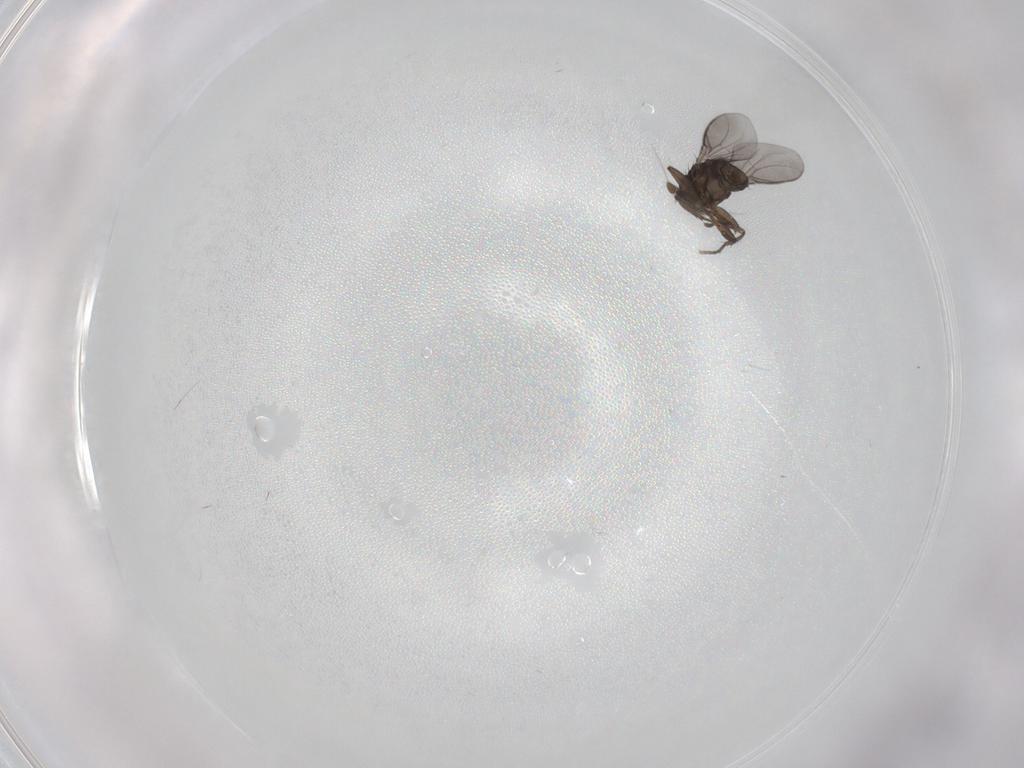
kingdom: Animalia
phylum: Arthropoda
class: Insecta
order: Diptera
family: Sphaeroceridae
